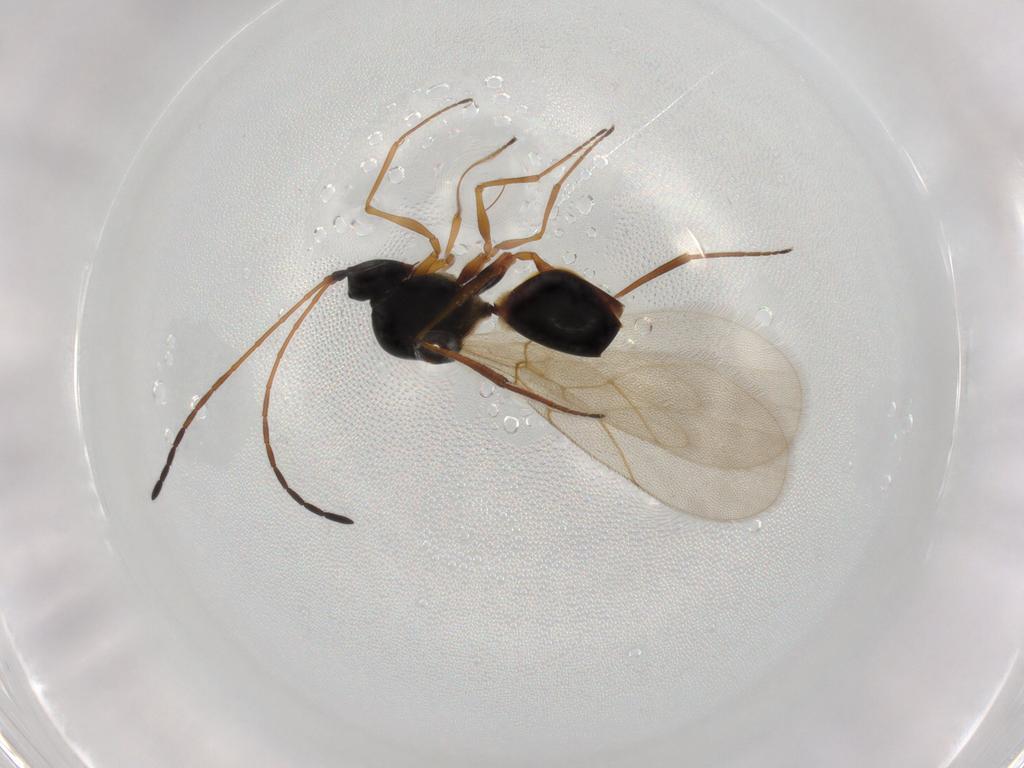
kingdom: Animalia
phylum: Arthropoda
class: Insecta
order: Hymenoptera
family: Figitidae
